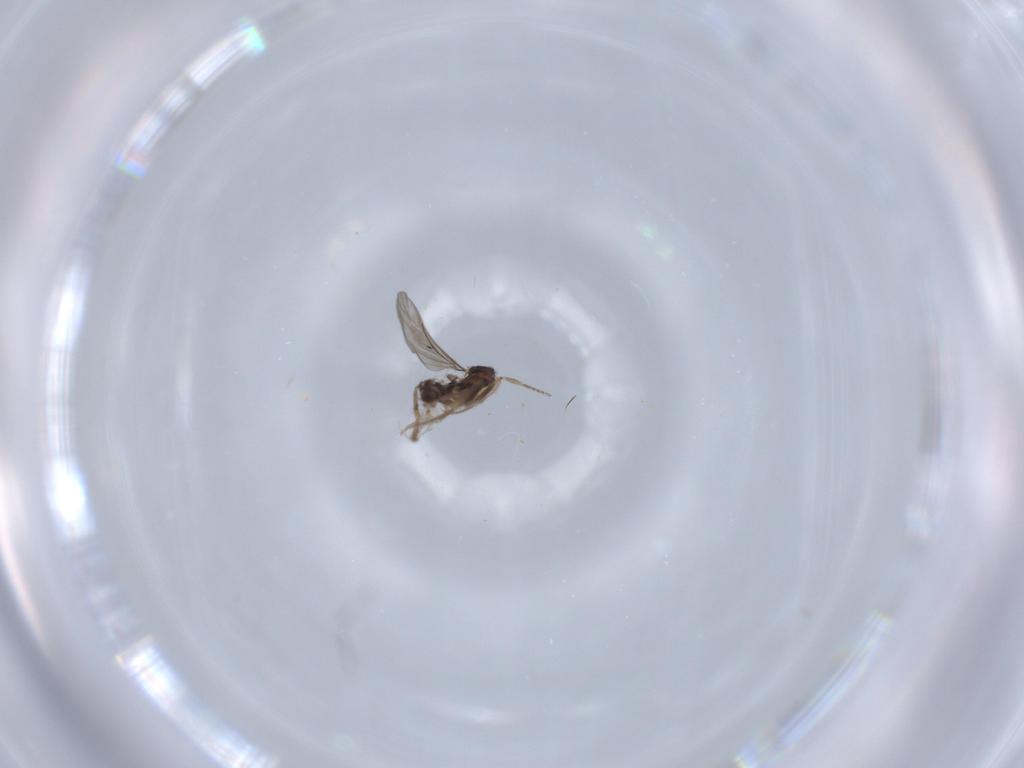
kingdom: Animalia
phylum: Arthropoda
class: Insecta
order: Diptera
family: Chironomidae
